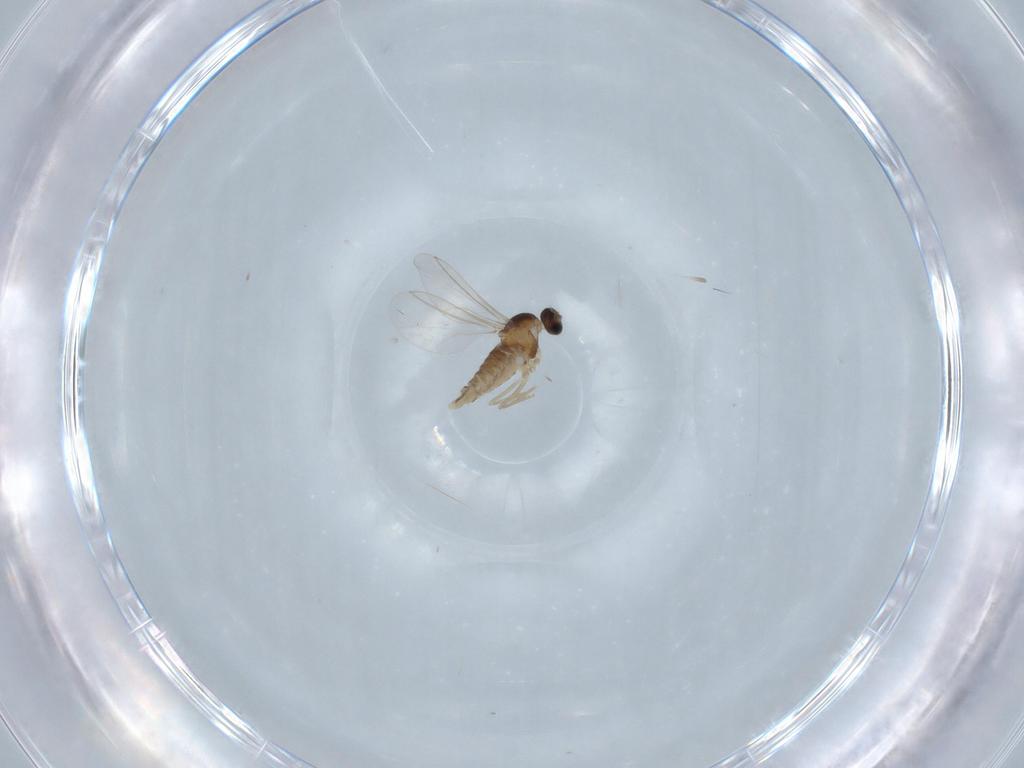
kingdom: Animalia
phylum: Arthropoda
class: Insecta
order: Diptera
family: Cecidomyiidae
